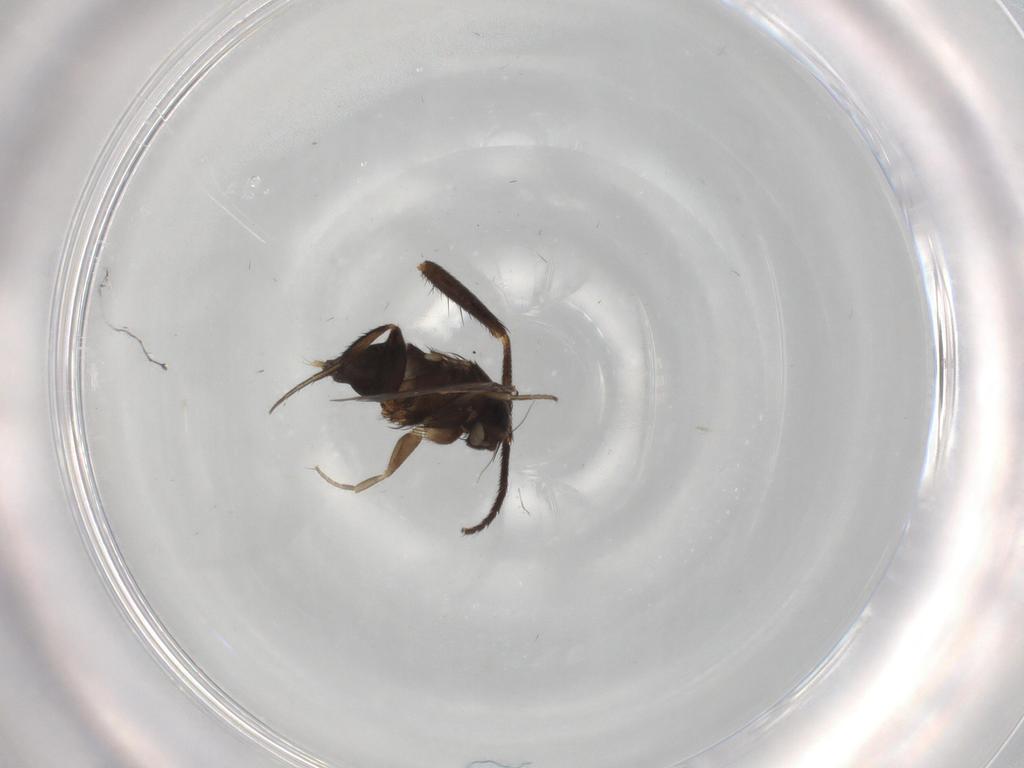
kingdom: Animalia
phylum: Arthropoda
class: Insecta
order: Diptera
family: Phoridae
